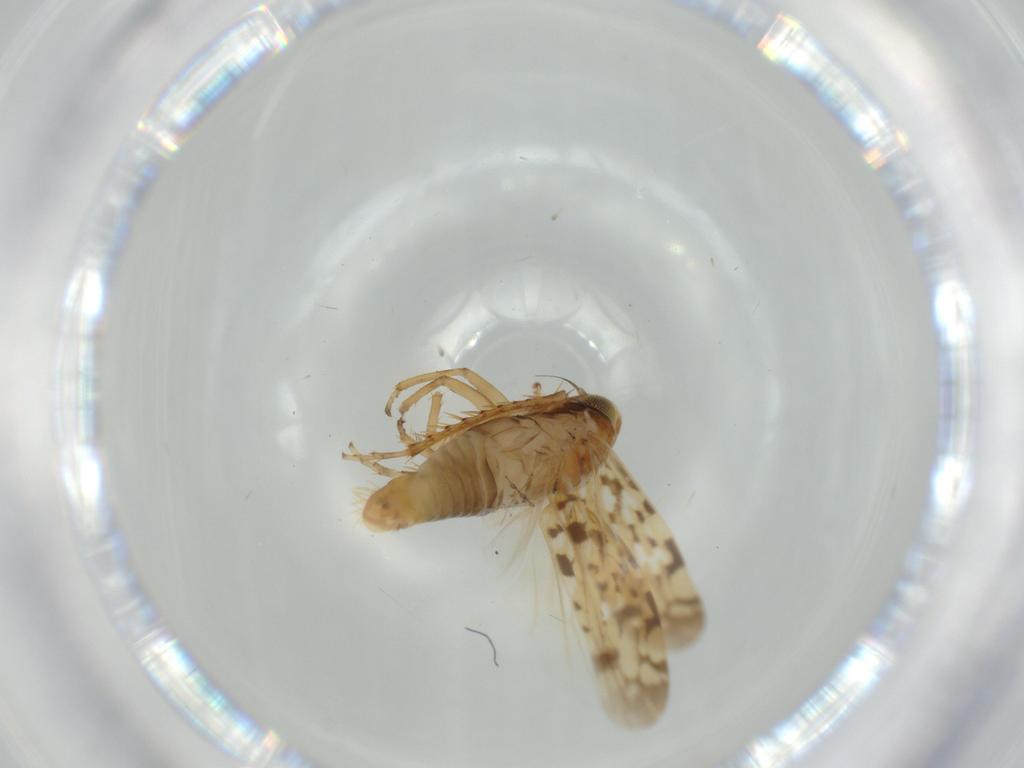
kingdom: Animalia
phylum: Arthropoda
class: Insecta
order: Hemiptera
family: Cicadellidae
